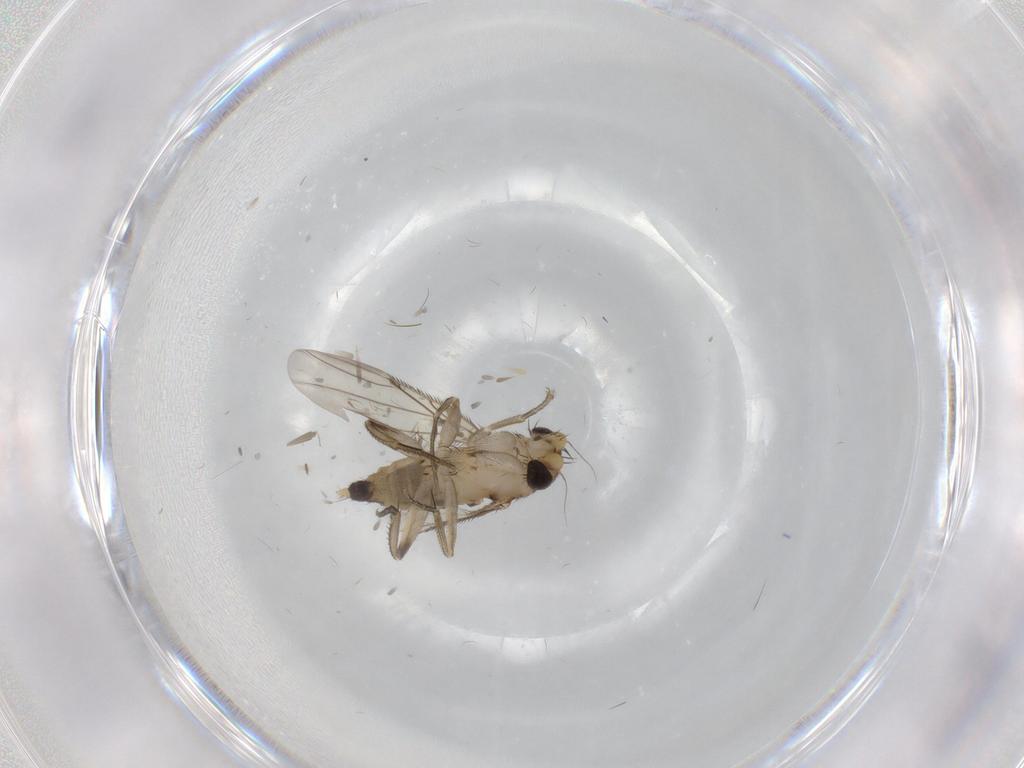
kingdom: Animalia
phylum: Arthropoda
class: Insecta
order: Diptera
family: Phoridae
